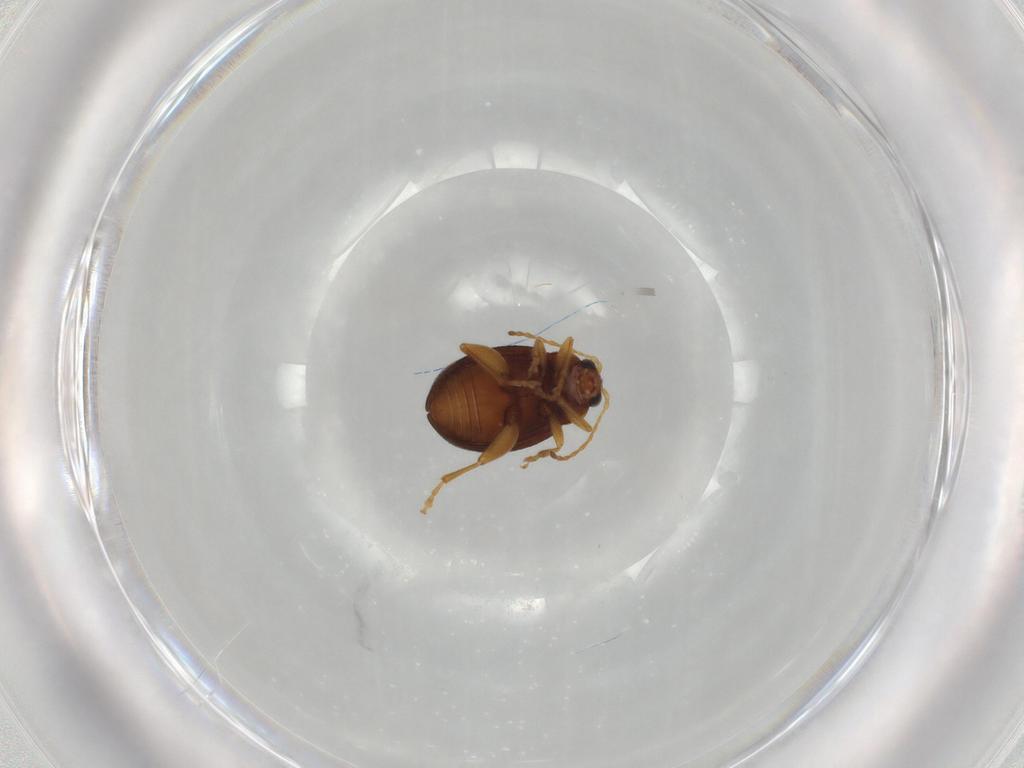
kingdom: Animalia
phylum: Arthropoda
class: Insecta
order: Coleoptera
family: Chrysomelidae
